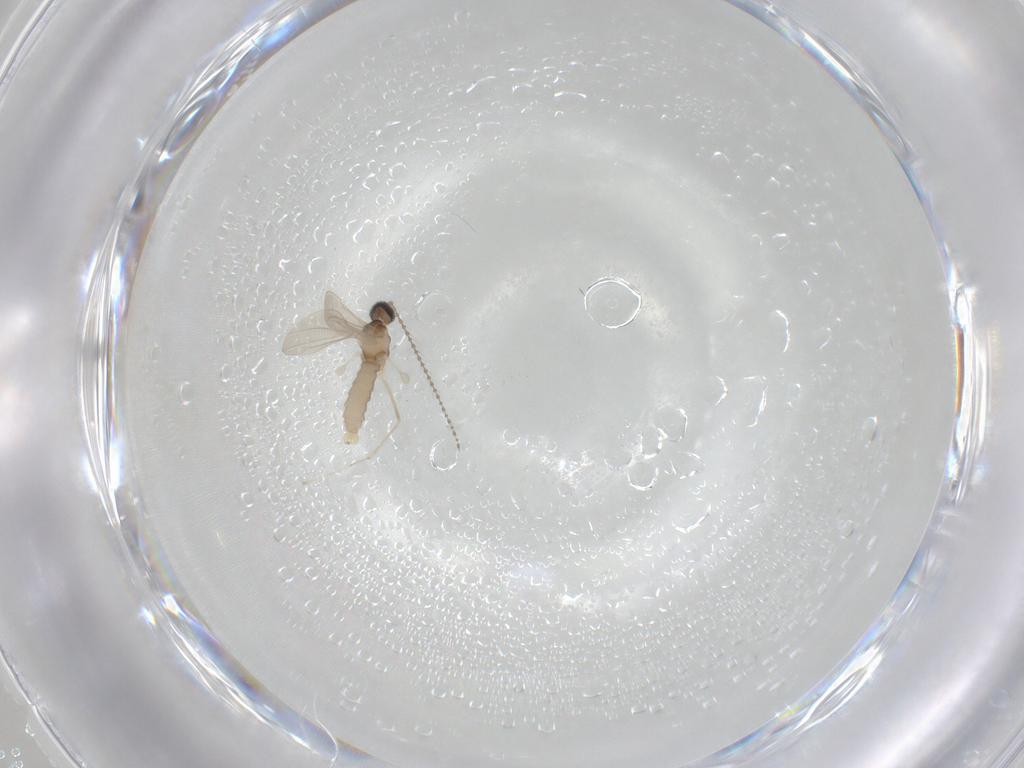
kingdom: Animalia
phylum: Arthropoda
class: Insecta
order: Diptera
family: Cecidomyiidae
